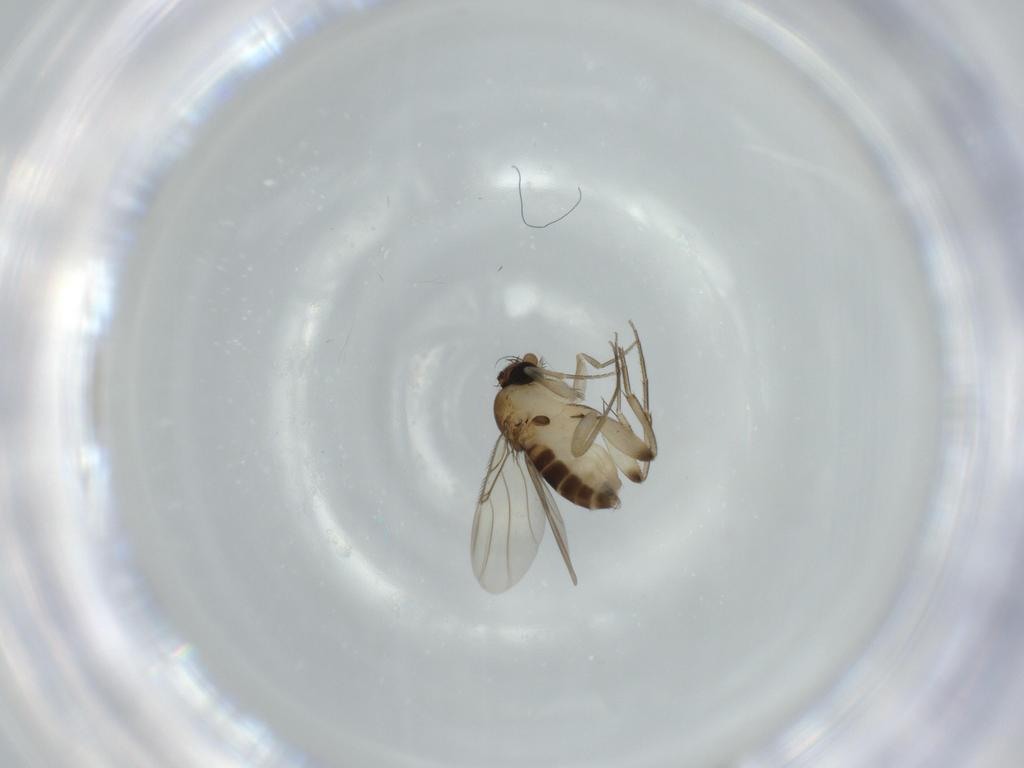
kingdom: Animalia
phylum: Arthropoda
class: Insecta
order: Diptera
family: Phoridae
